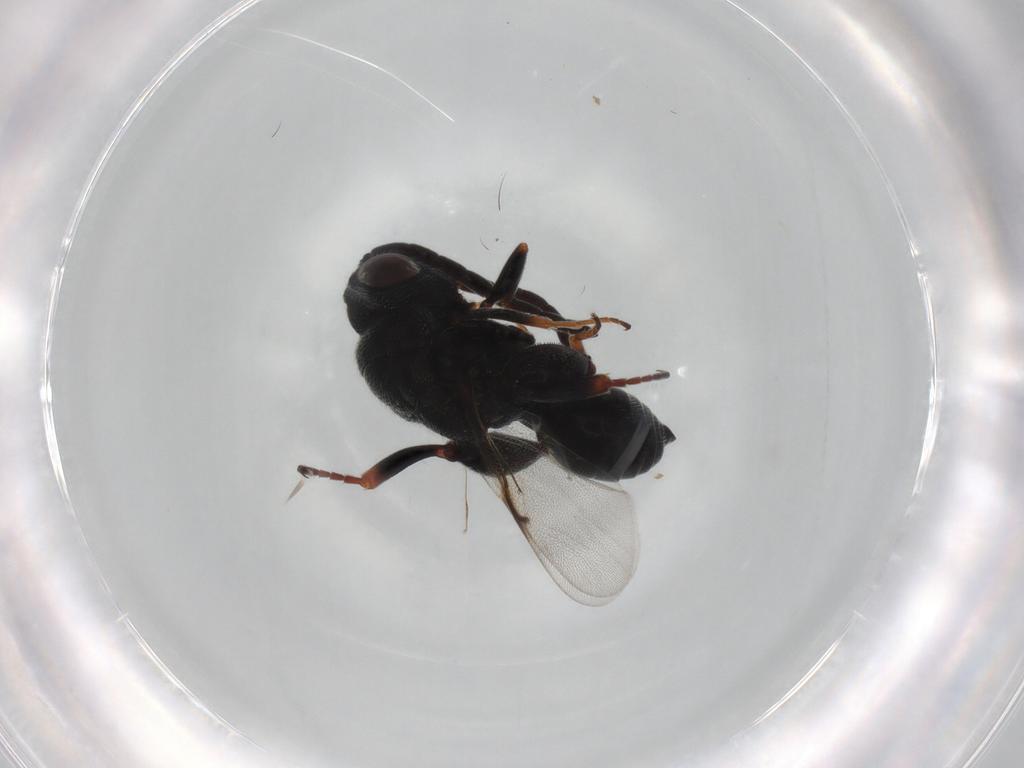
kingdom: Animalia
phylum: Arthropoda
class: Insecta
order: Hymenoptera
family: Chalcididae
